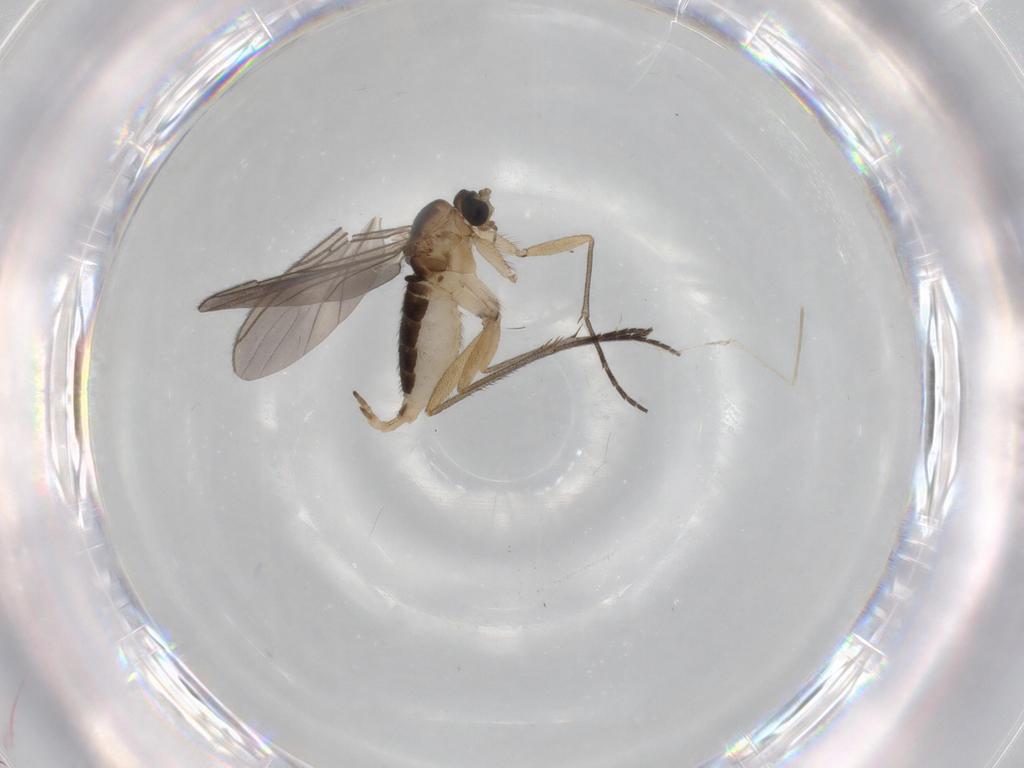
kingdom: Animalia
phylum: Arthropoda
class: Insecta
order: Diptera
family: Sciaridae
